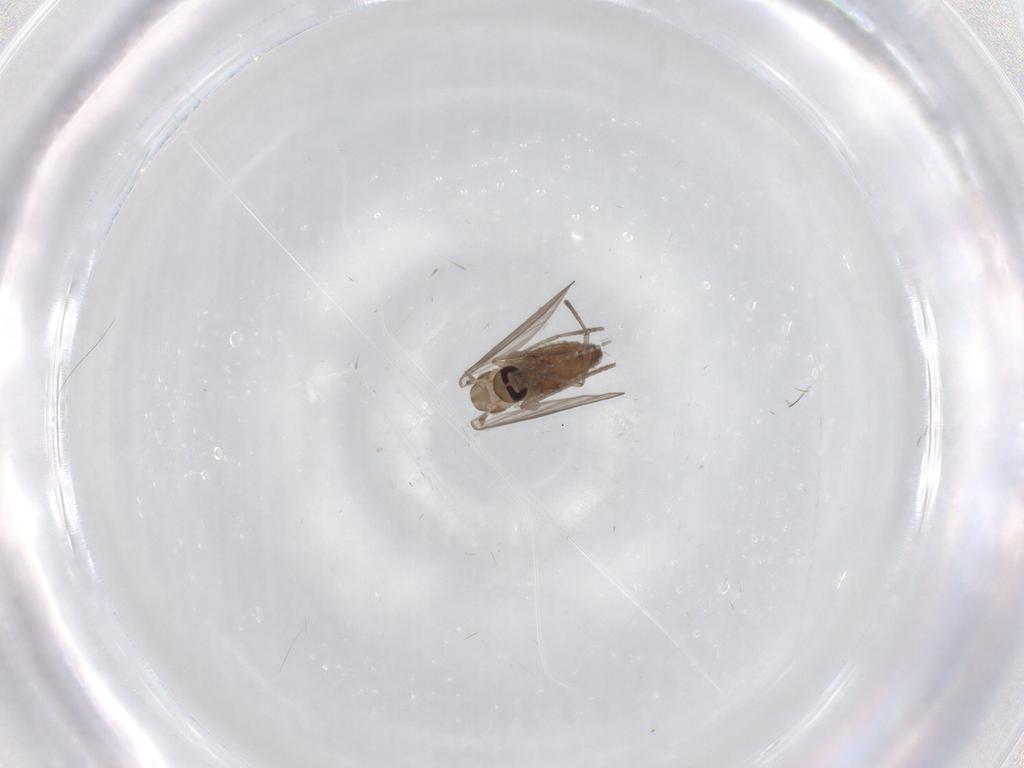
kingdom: Animalia
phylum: Arthropoda
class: Insecta
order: Diptera
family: Psychodidae
